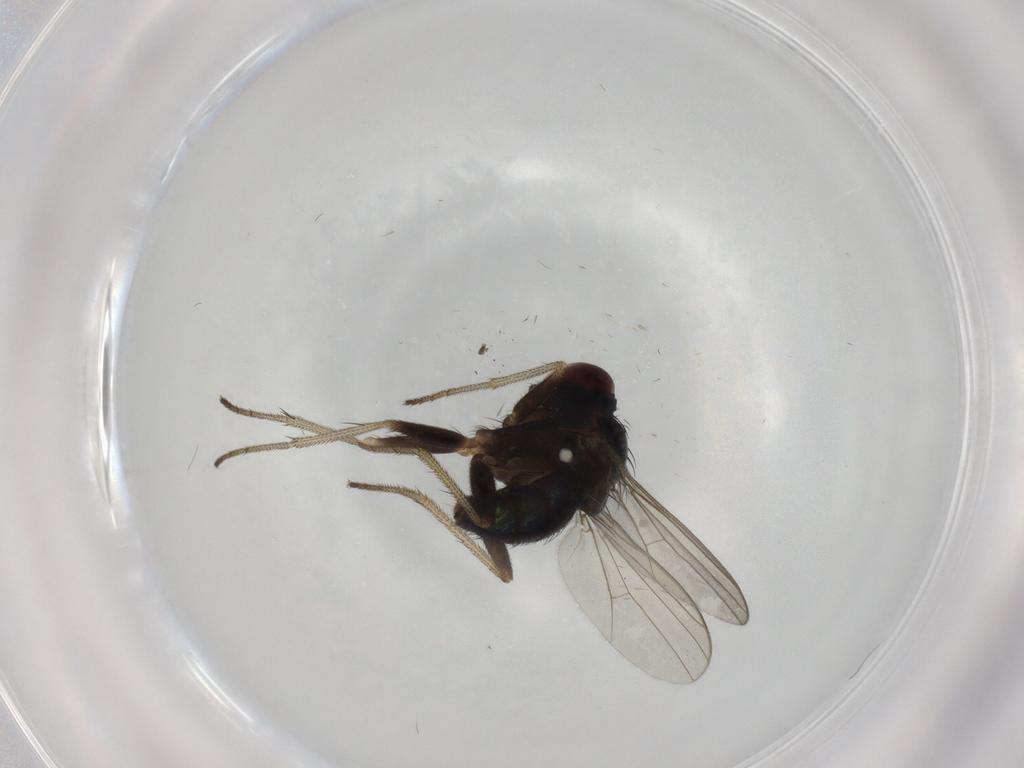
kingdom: Animalia
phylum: Arthropoda
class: Insecta
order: Diptera
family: Dolichopodidae
